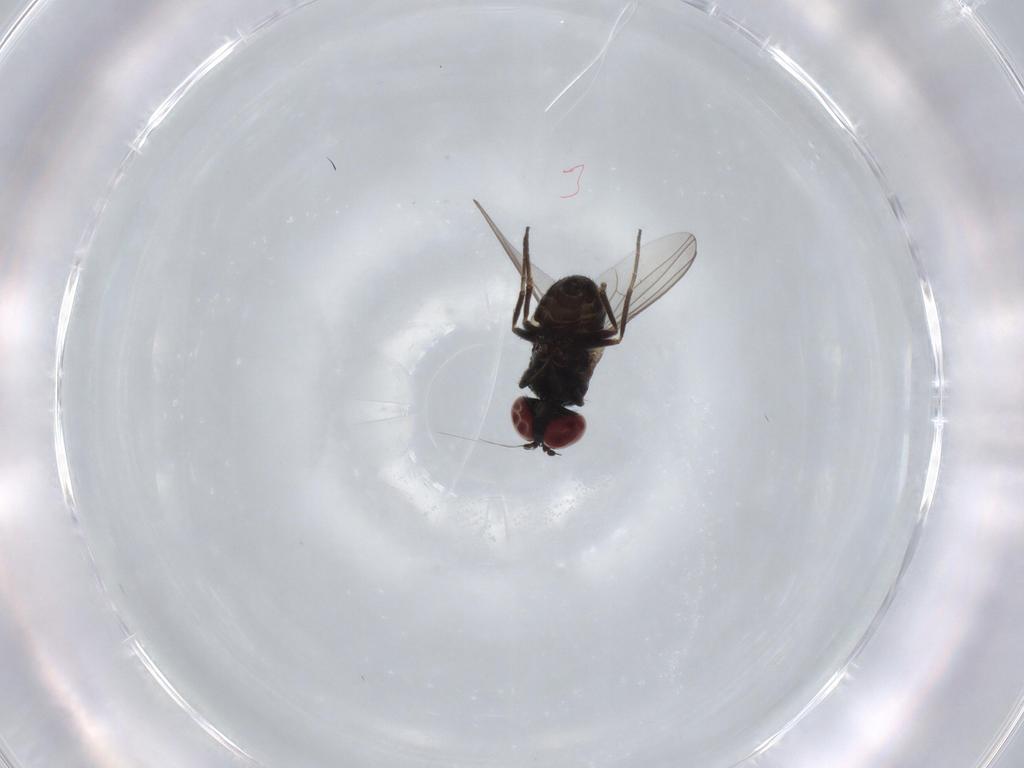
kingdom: Animalia
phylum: Arthropoda
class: Insecta
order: Diptera
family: Dolichopodidae
